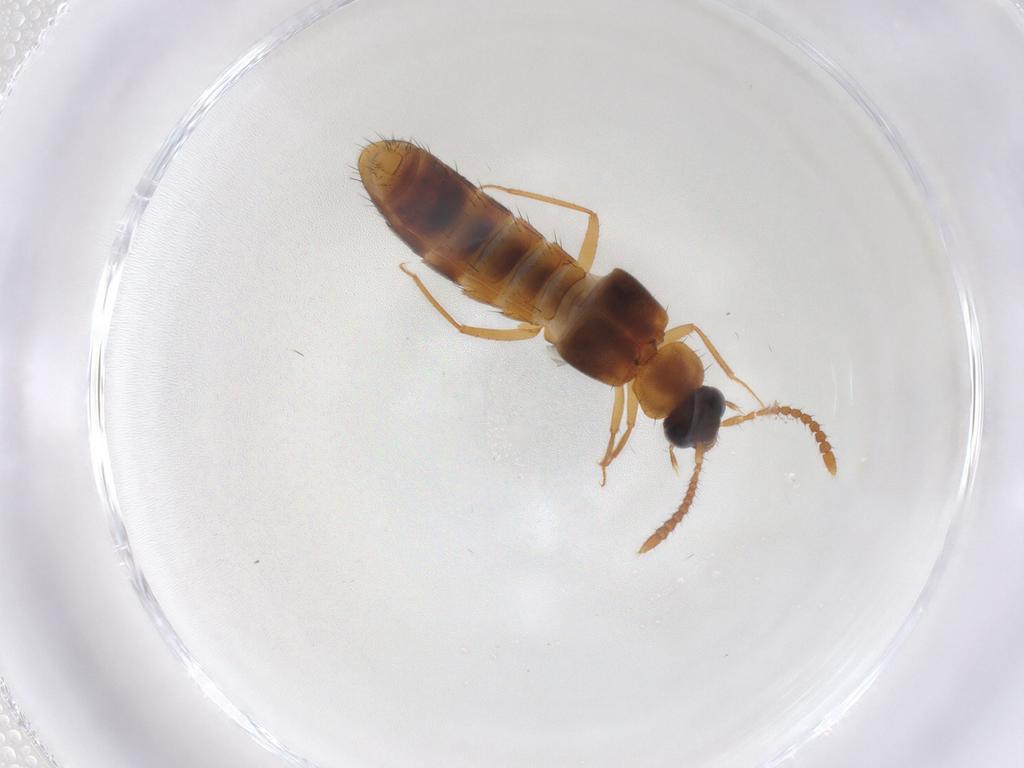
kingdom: Animalia
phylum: Arthropoda
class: Insecta
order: Coleoptera
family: Staphylinidae
